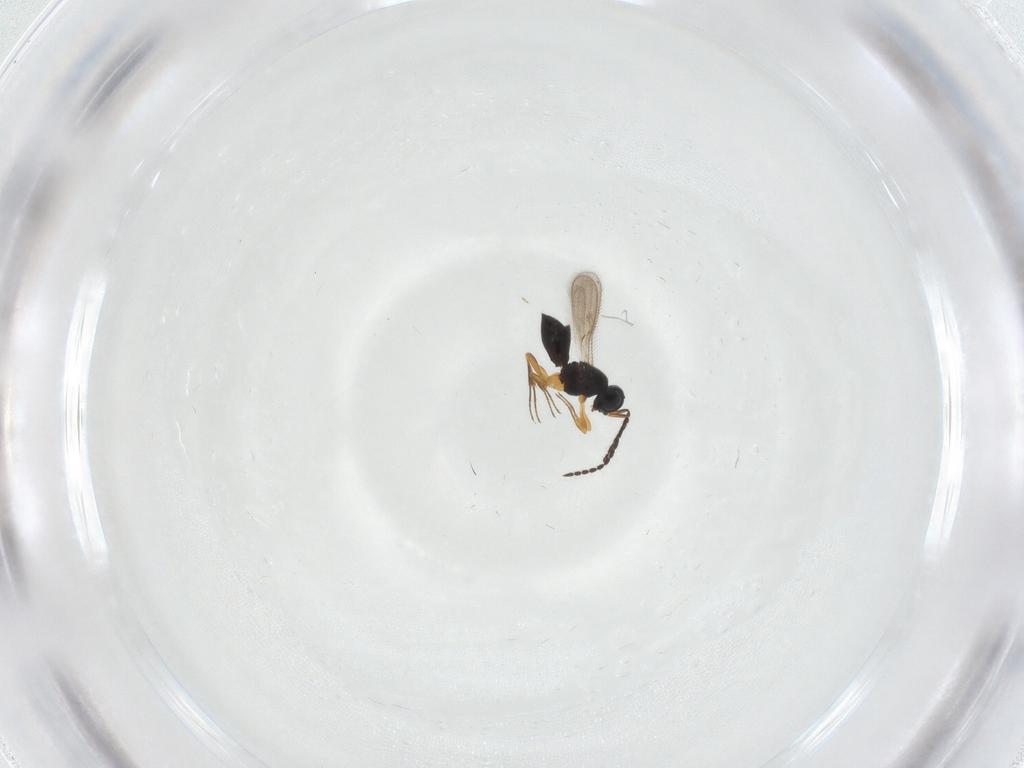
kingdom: Animalia
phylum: Arthropoda
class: Insecta
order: Hymenoptera
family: Scelionidae
